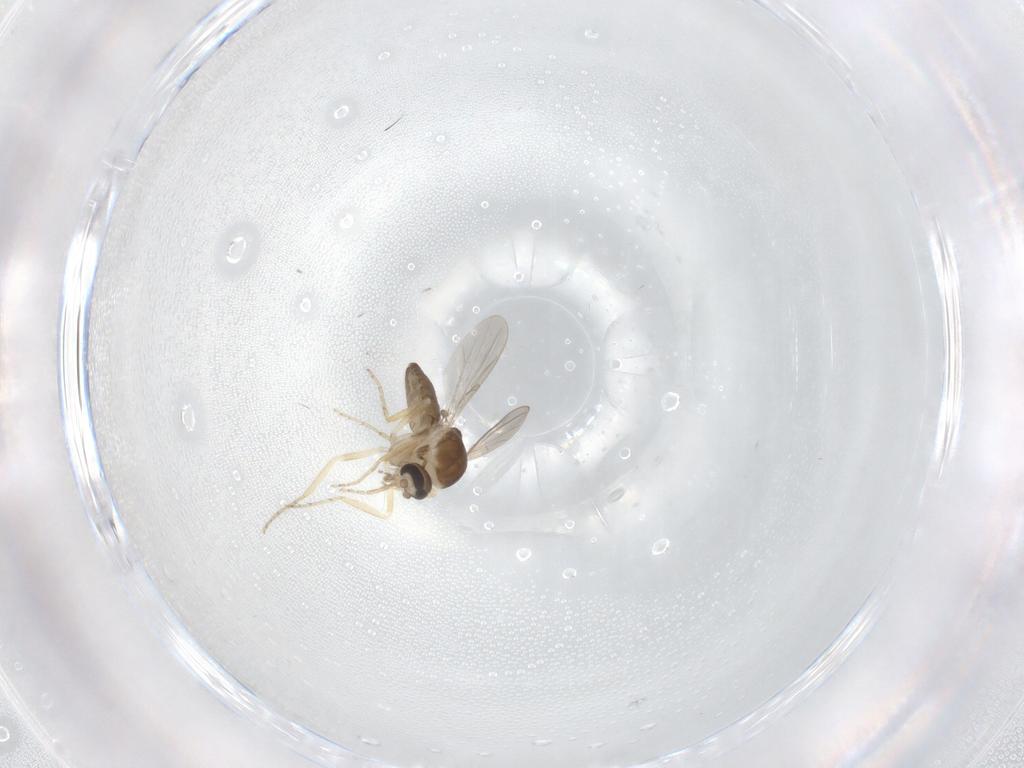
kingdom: Animalia
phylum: Arthropoda
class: Insecta
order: Diptera
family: Ceratopogonidae
